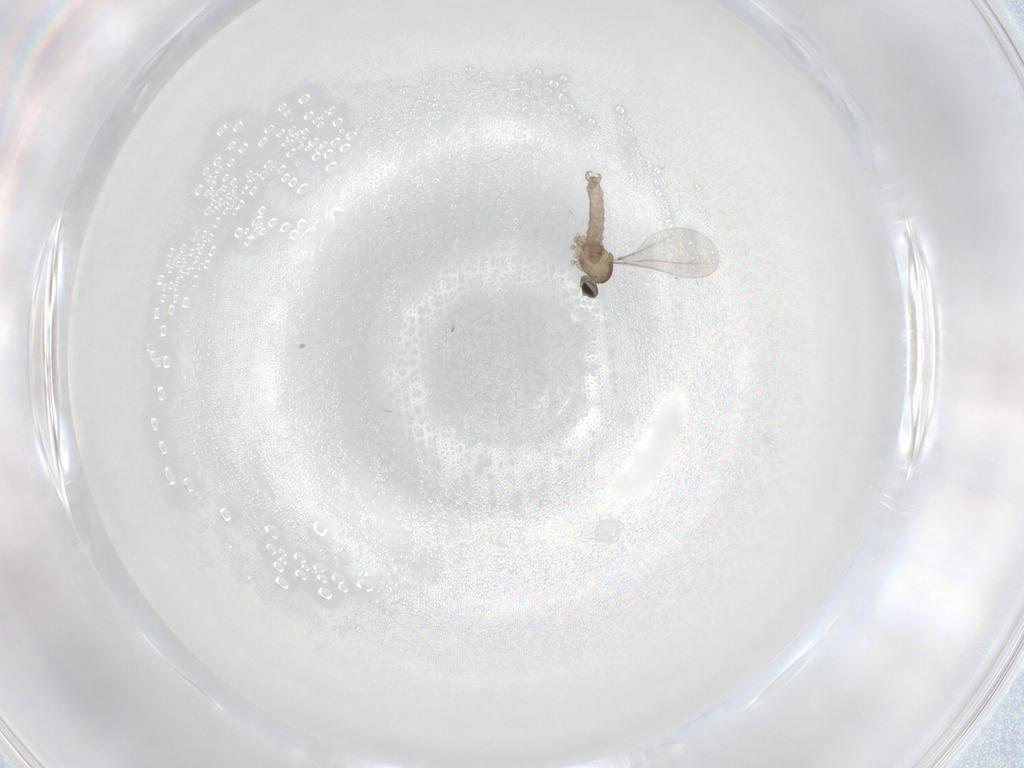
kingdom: Animalia
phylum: Arthropoda
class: Insecta
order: Diptera
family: Cecidomyiidae
